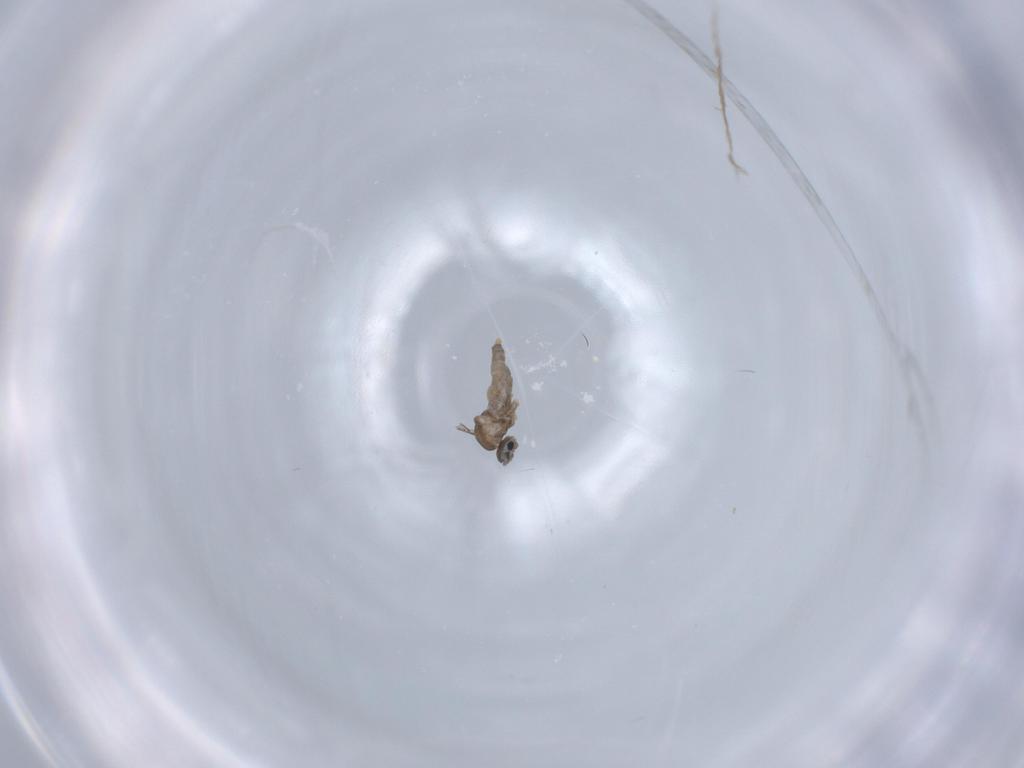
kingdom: Animalia
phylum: Arthropoda
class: Insecta
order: Diptera
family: Cecidomyiidae
